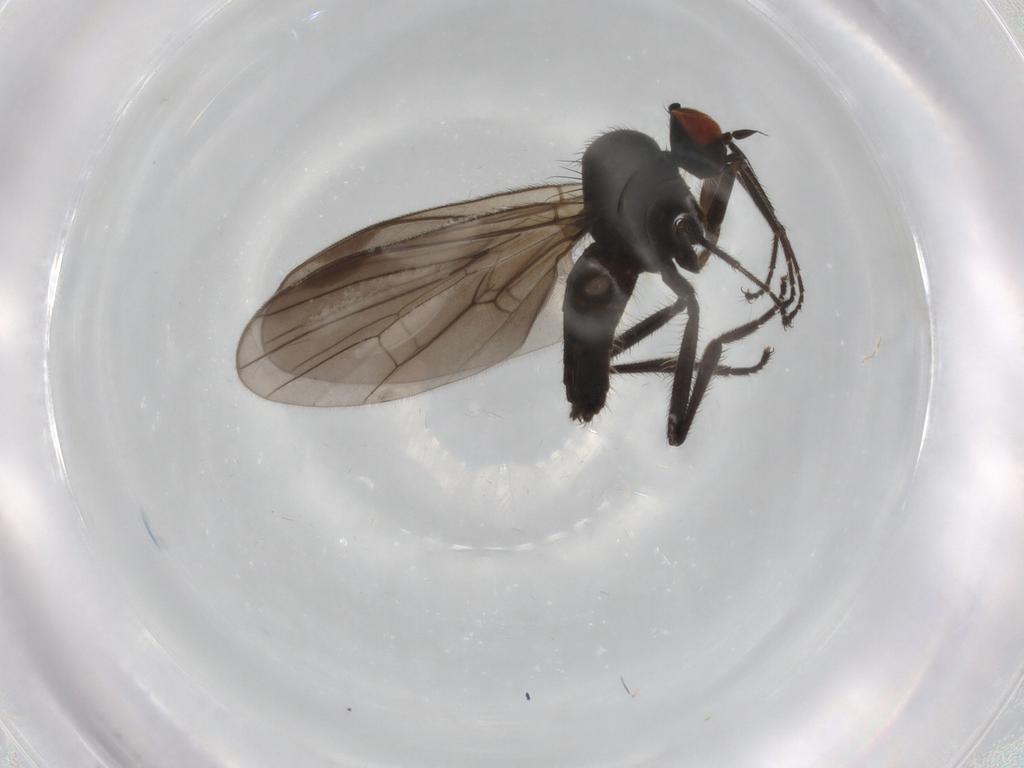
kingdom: Animalia
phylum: Arthropoda
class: Insecta
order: Diptera
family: Hybotidae
